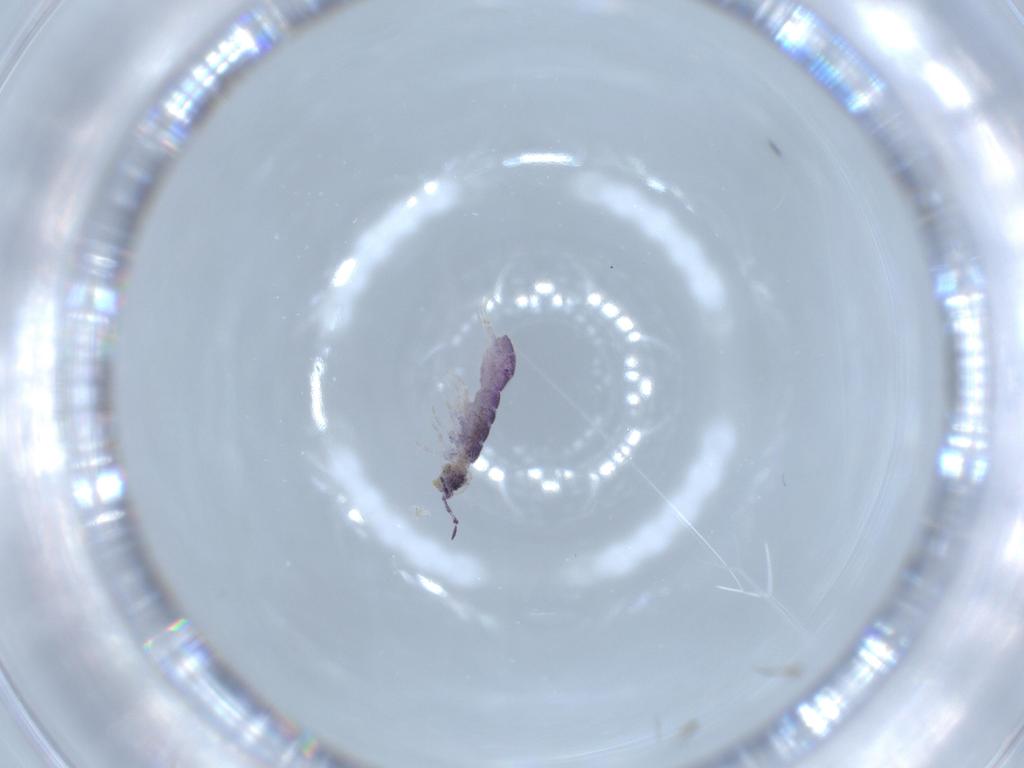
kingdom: Animalia
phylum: Arthropoda
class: Collembola
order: Entomobryomorpha
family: Isotomidae
